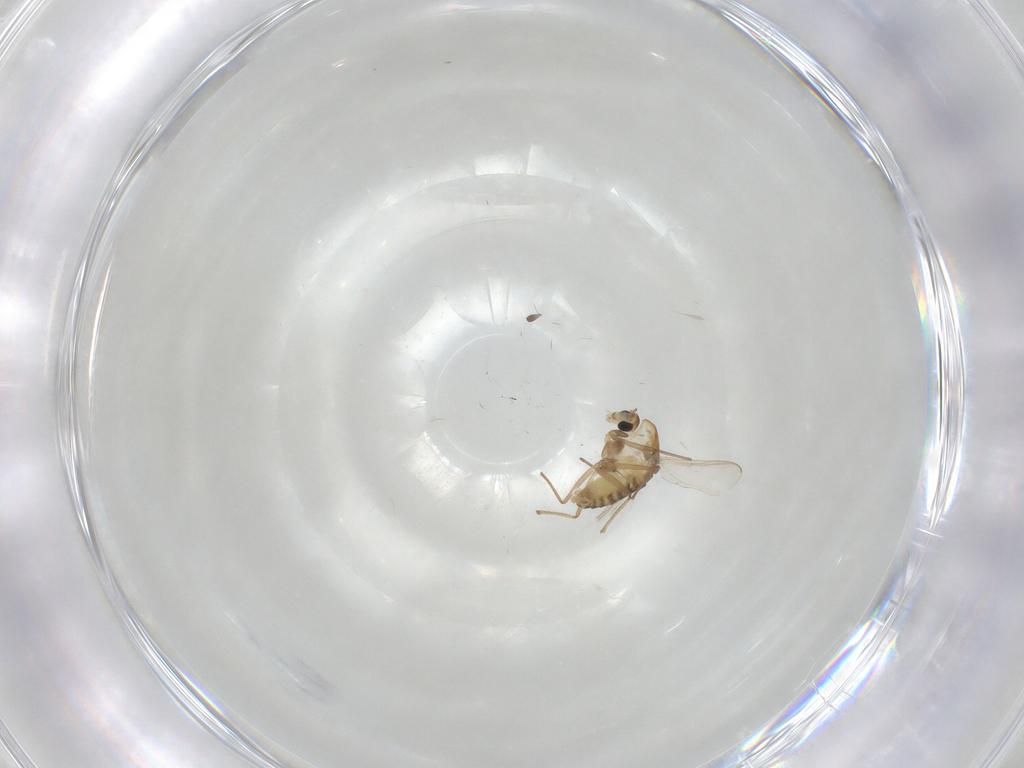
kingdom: Animalia
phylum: Arthropoda
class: Insecta
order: Diptera
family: Chironomidae
